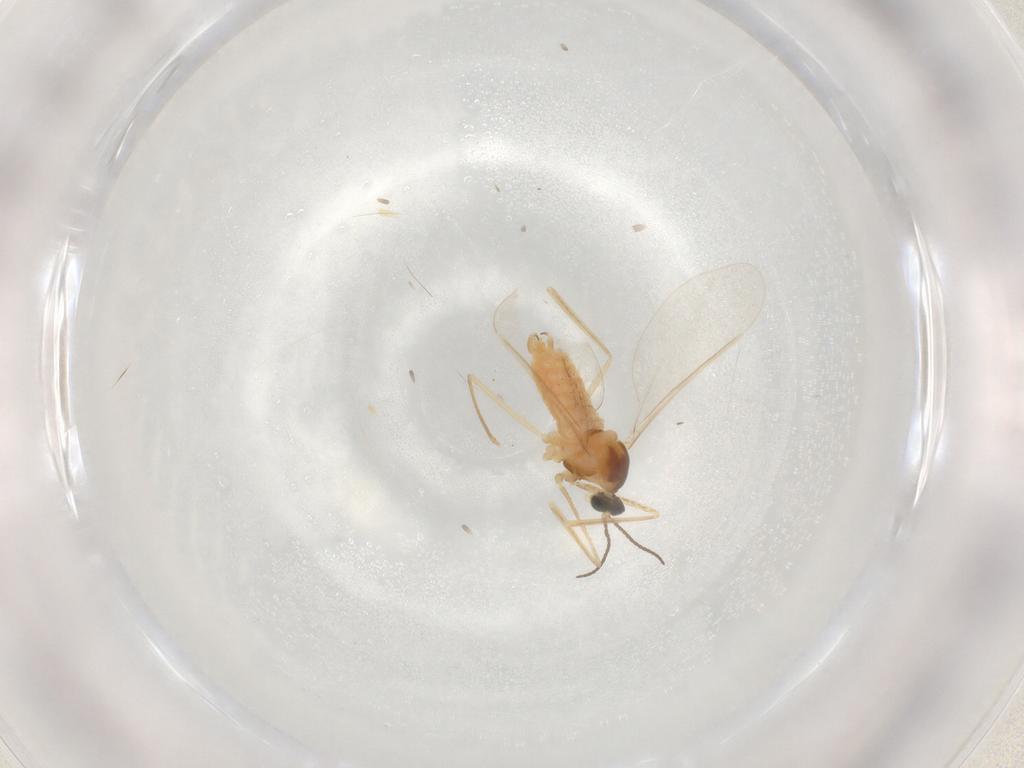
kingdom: Animalia
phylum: Arthropoda
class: Insecta
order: Diptera
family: Cecidomyiidae
